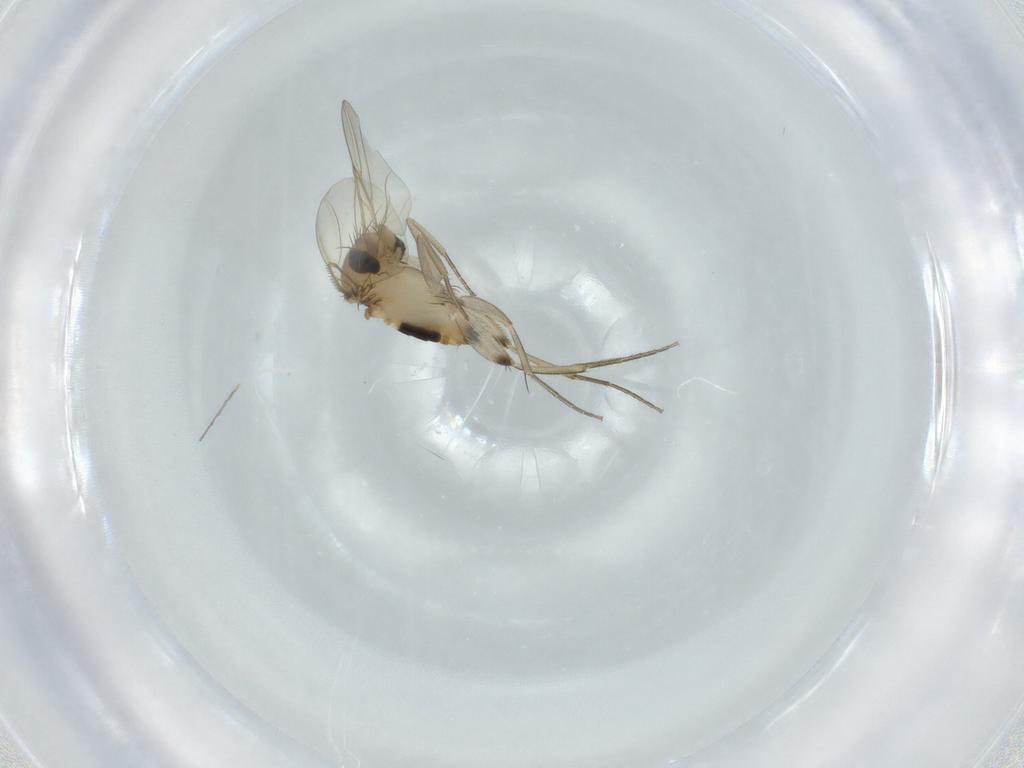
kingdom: Animalia
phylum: Arthropoda
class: Insecta
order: Diptera
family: Phoridae
